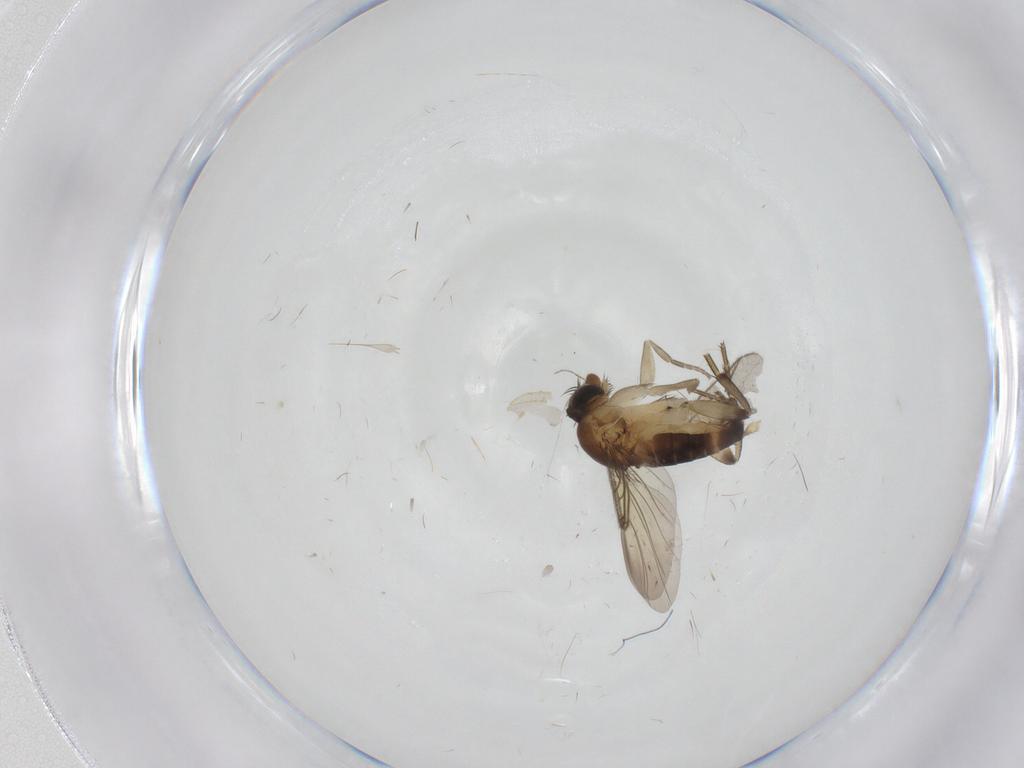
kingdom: Animalia
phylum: Arthropoda
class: Insecta
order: Diptera
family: Phoridae
